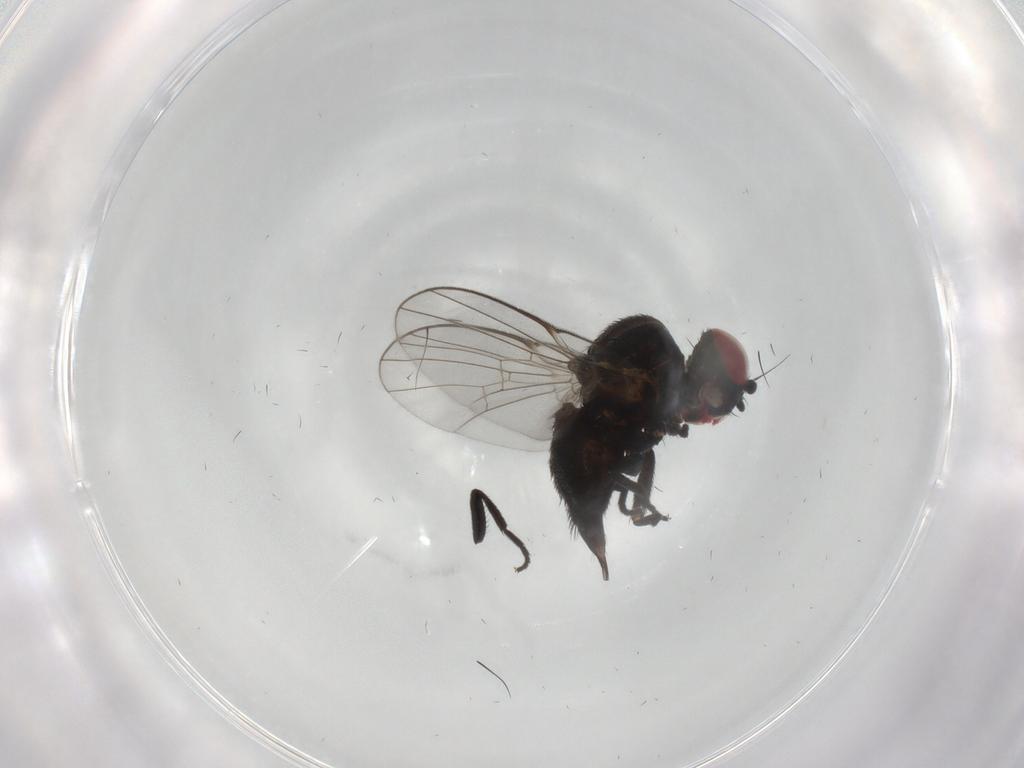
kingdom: Animalia
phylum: Arthropoda
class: Insecta
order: Diptera
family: Agromyzidae
